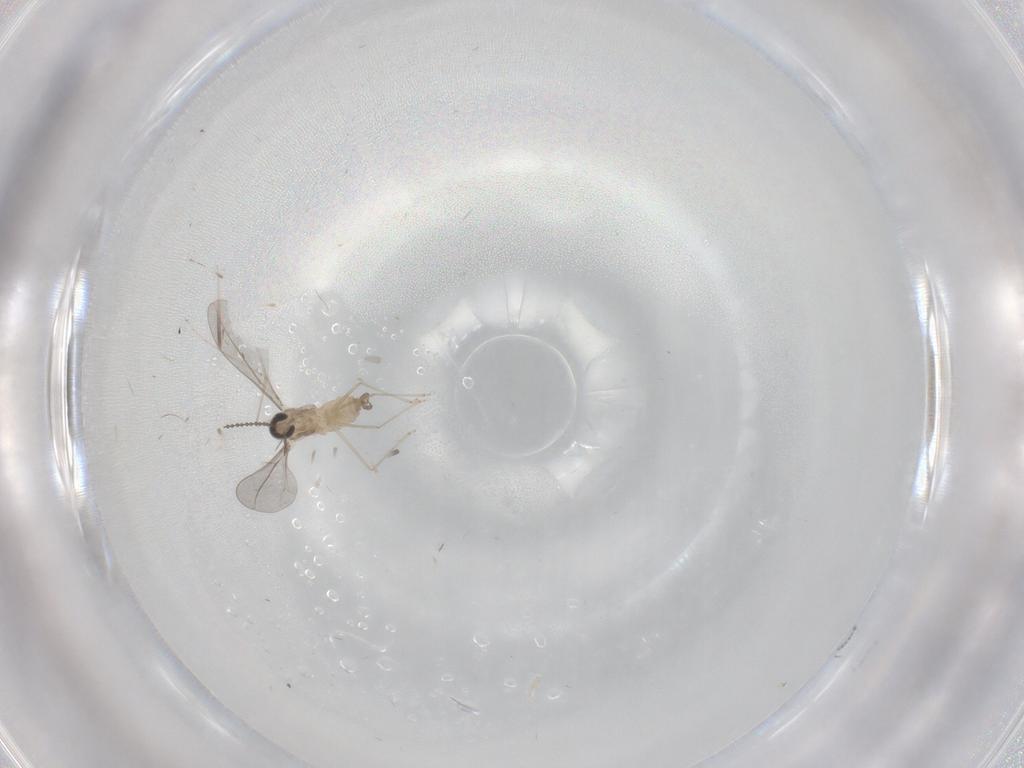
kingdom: Animalia
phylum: Arthropoda
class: Insecta
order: Diptera
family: Cecidomyiidae
